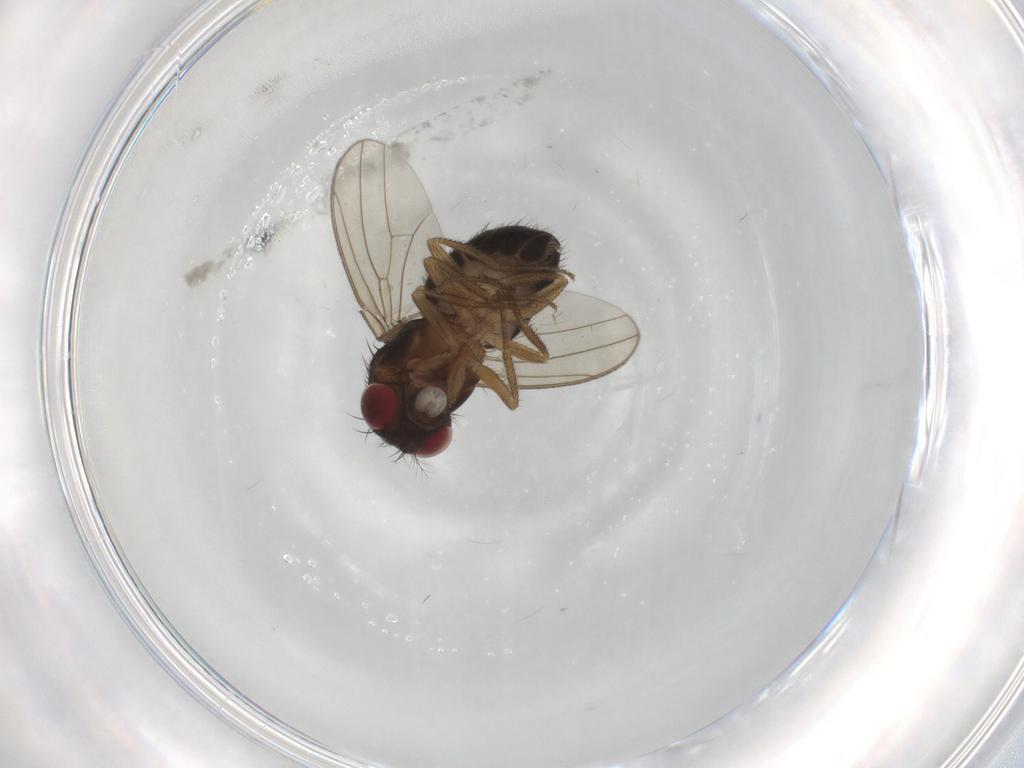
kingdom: Animalia
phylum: Arthropoda
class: Insecta
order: Diptera
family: Drosophilidae
